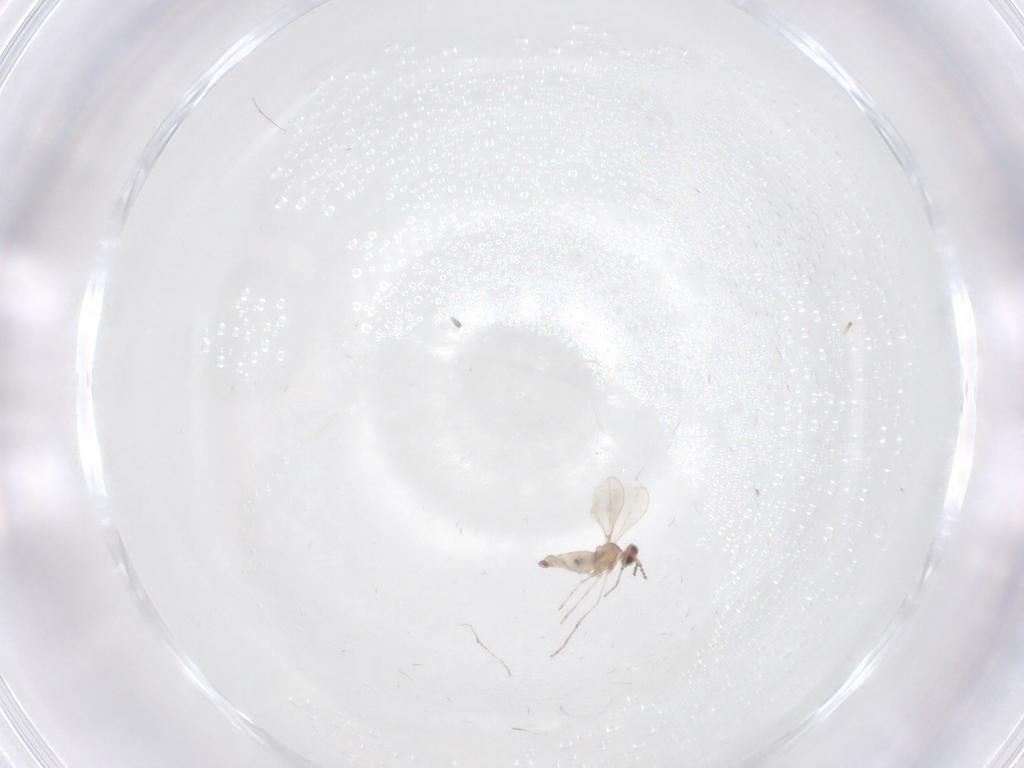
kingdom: Animalia
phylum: Arthropoda
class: Insecta
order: Diptera
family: Cecidomyiidae
